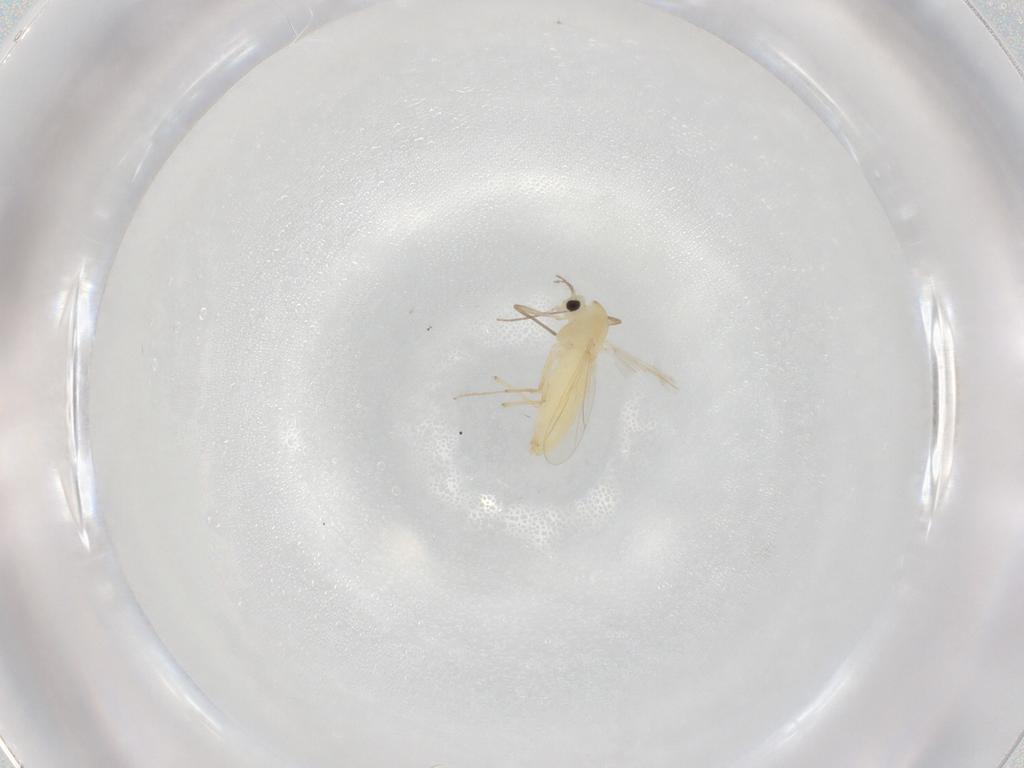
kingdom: Animalia
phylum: Arthropoda
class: Insecta
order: Diptera
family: Chironomidae
